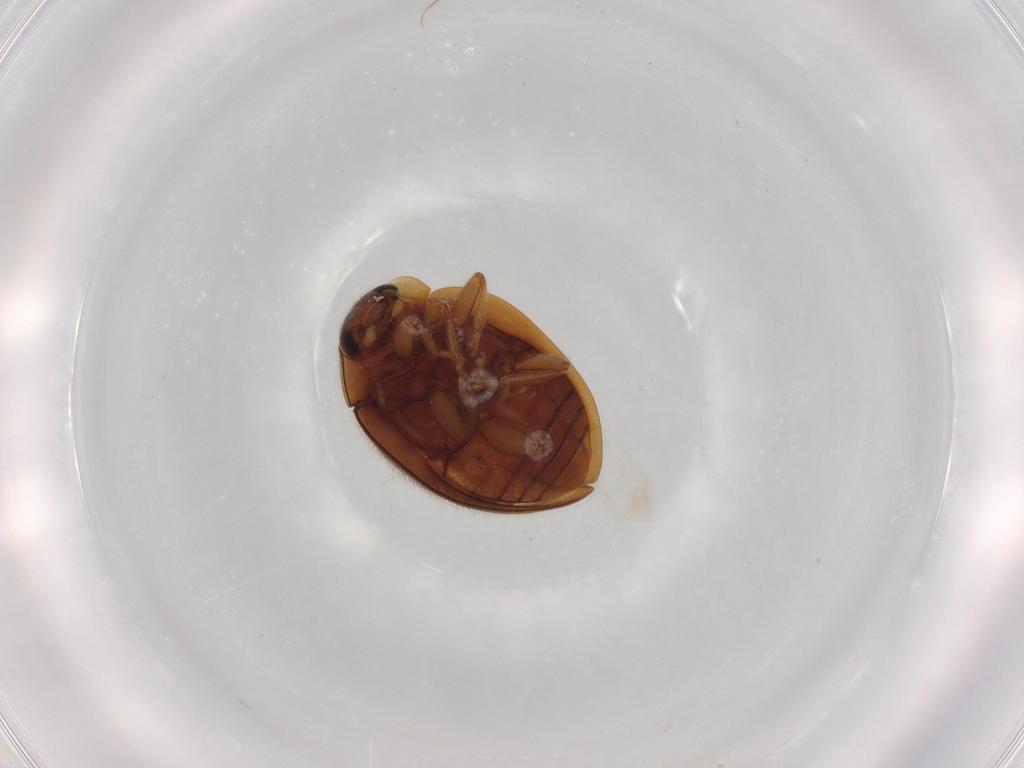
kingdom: Animalia
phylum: Arthropoda
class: Insecta
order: Coleoptera
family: Coccinellidae
